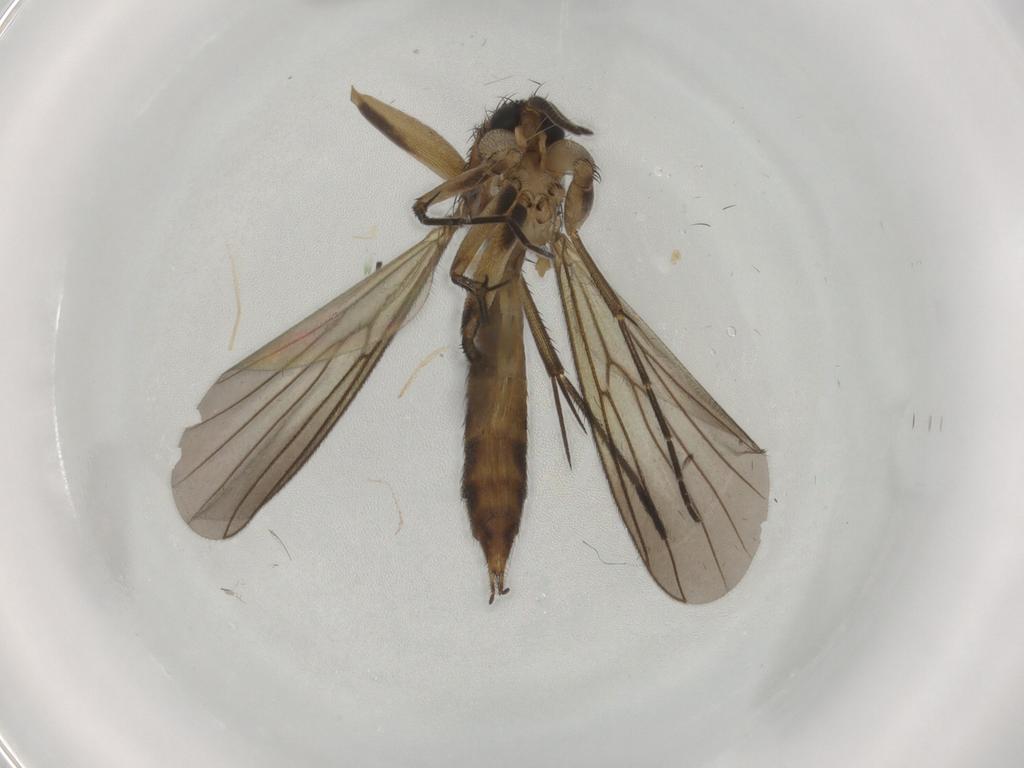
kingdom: Animalia
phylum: Arthropoda
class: Insecta
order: Diptera
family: Mycetophilidae
